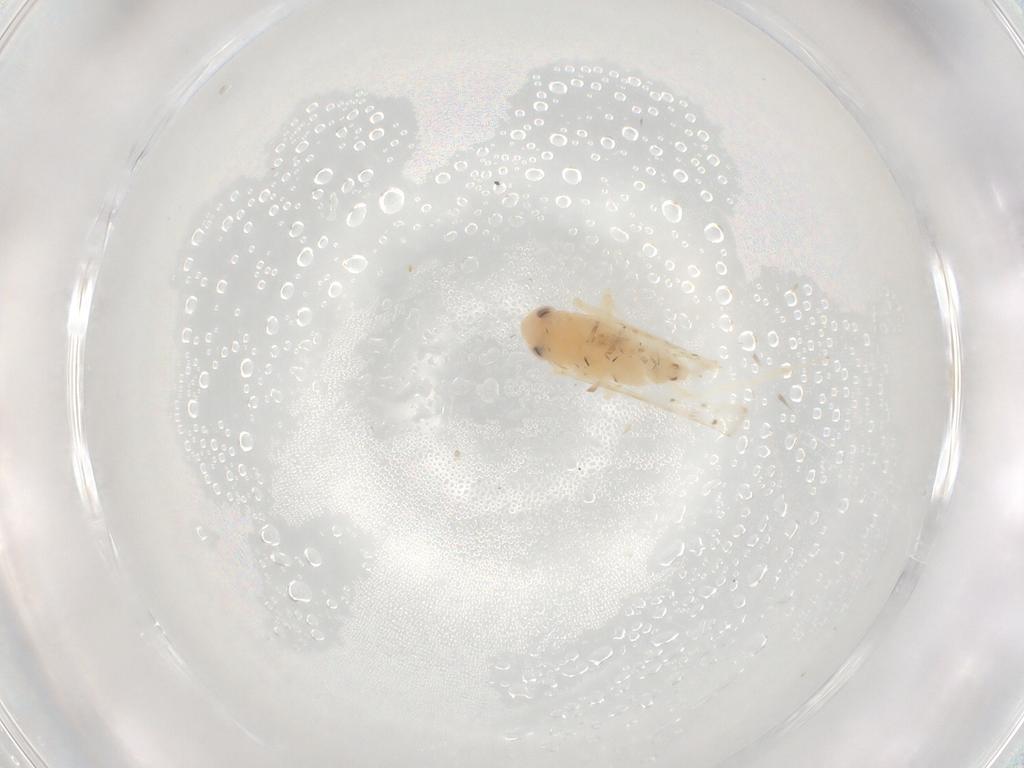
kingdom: Animalia
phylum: Arthropoda
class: Insecta
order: Hemiptera
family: Cicadellidae
